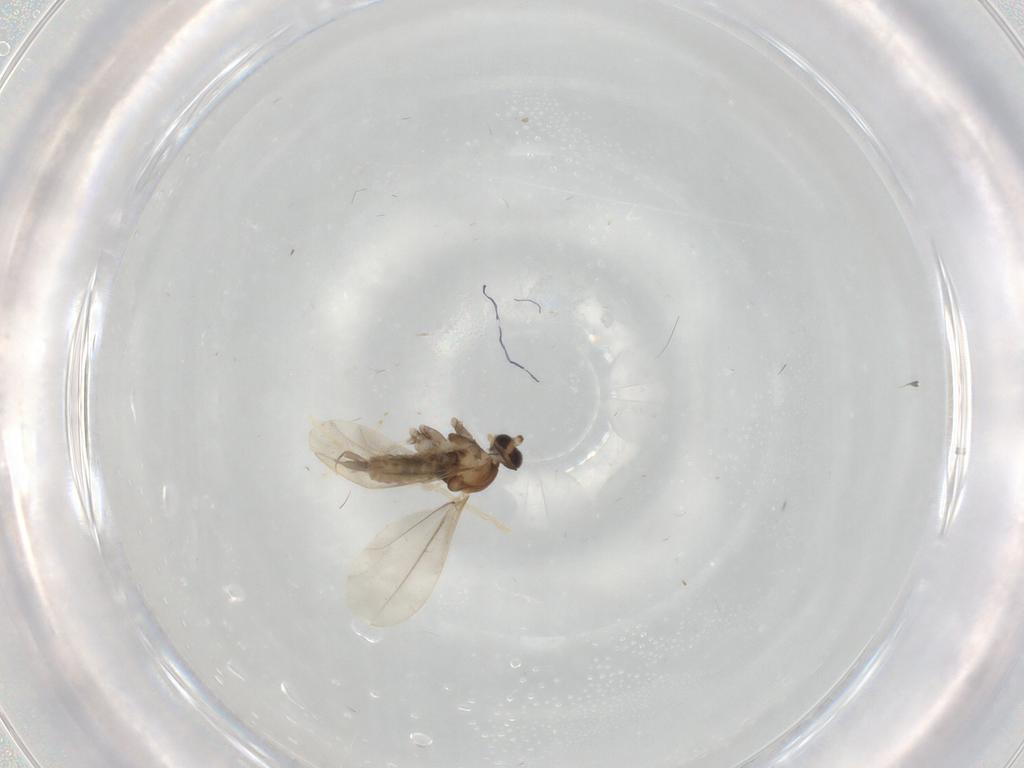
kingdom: Animalia
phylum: Arthropoda
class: Insecta
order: Diptera
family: Cecidomyiidae
